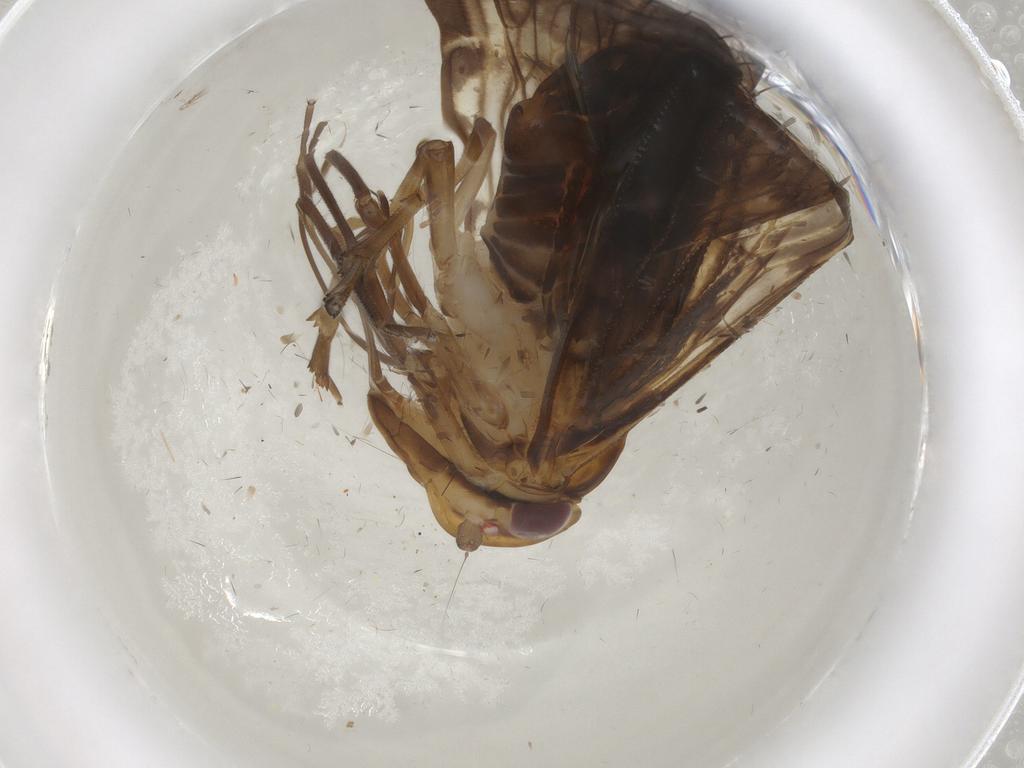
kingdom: Animalia
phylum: Arthropoda
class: Insecta
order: Hemiptera
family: Cixiidae
